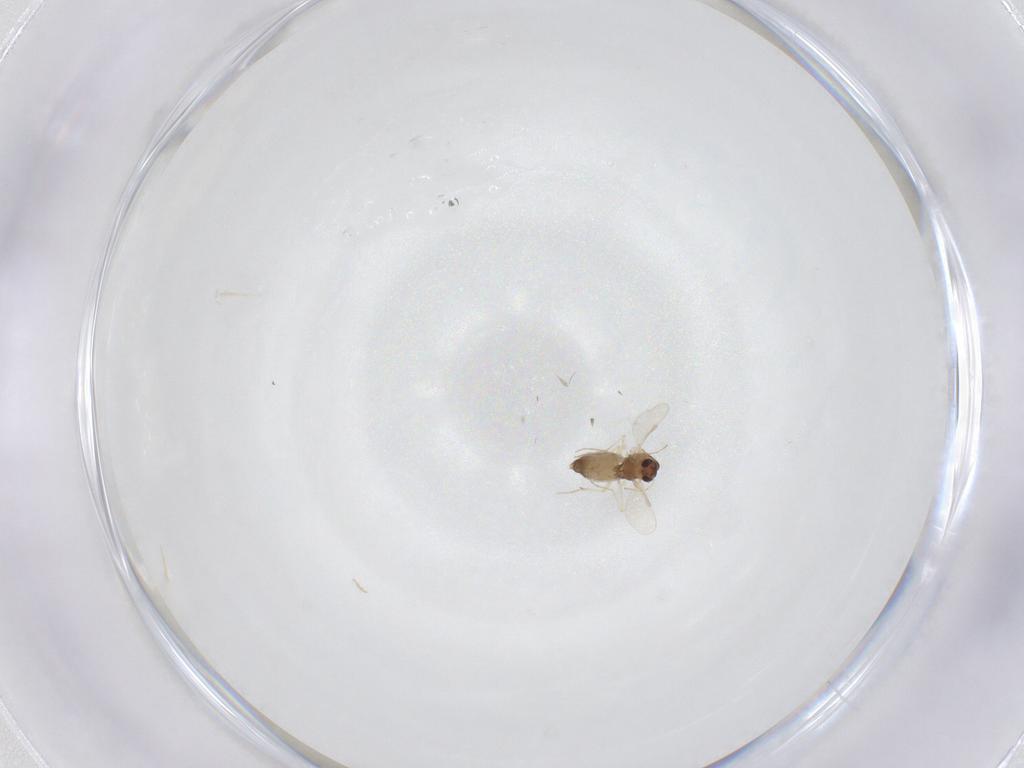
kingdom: Animalia
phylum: Arthropoda
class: Insecta
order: Diptera
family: Chironomidae
